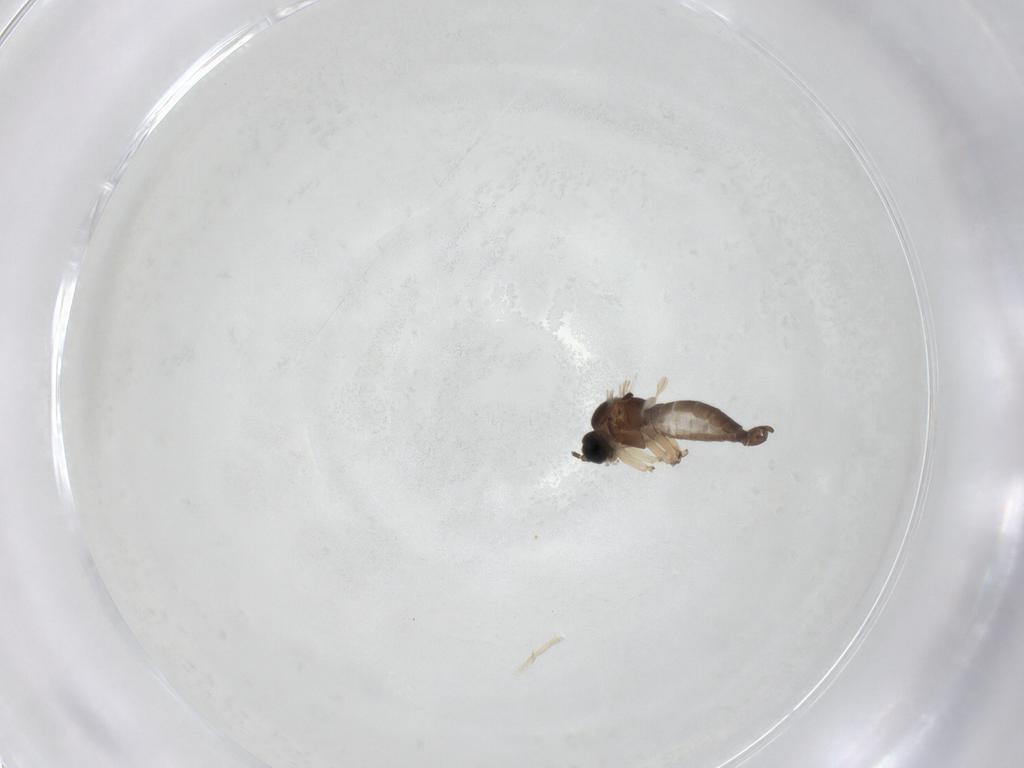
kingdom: Animalia
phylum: Arthropoda
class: Insecta
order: Diptera
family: Sciaridae
